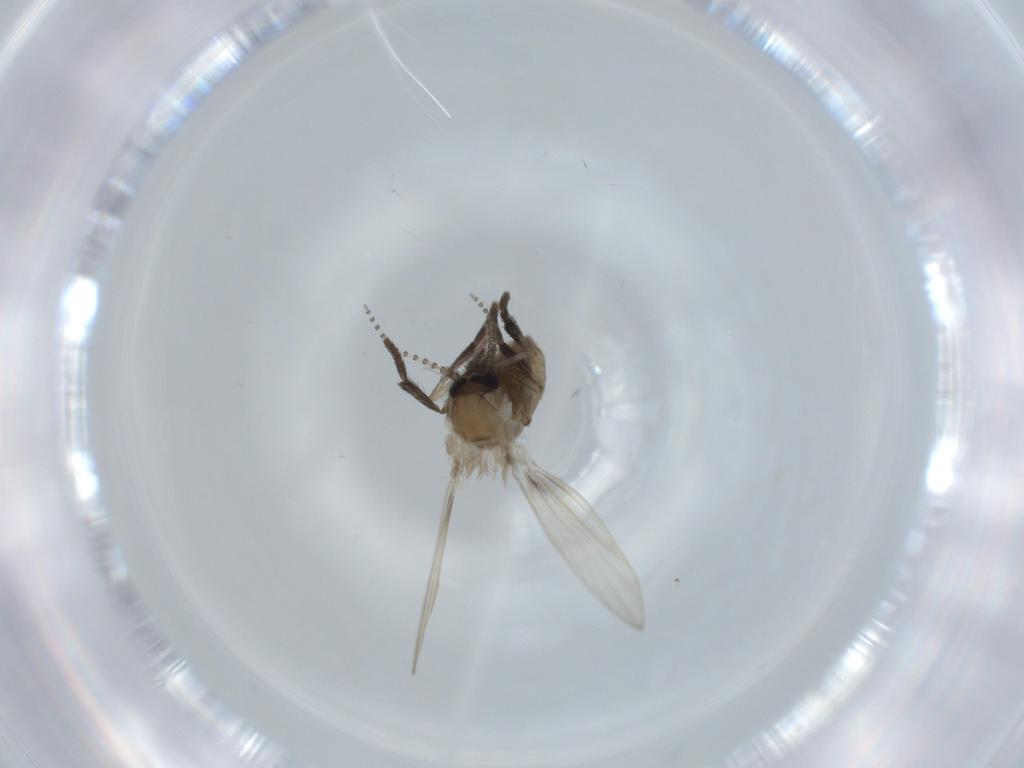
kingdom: Animalia
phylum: Arthropoda
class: Insecta
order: Diptera
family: Psychodidae
